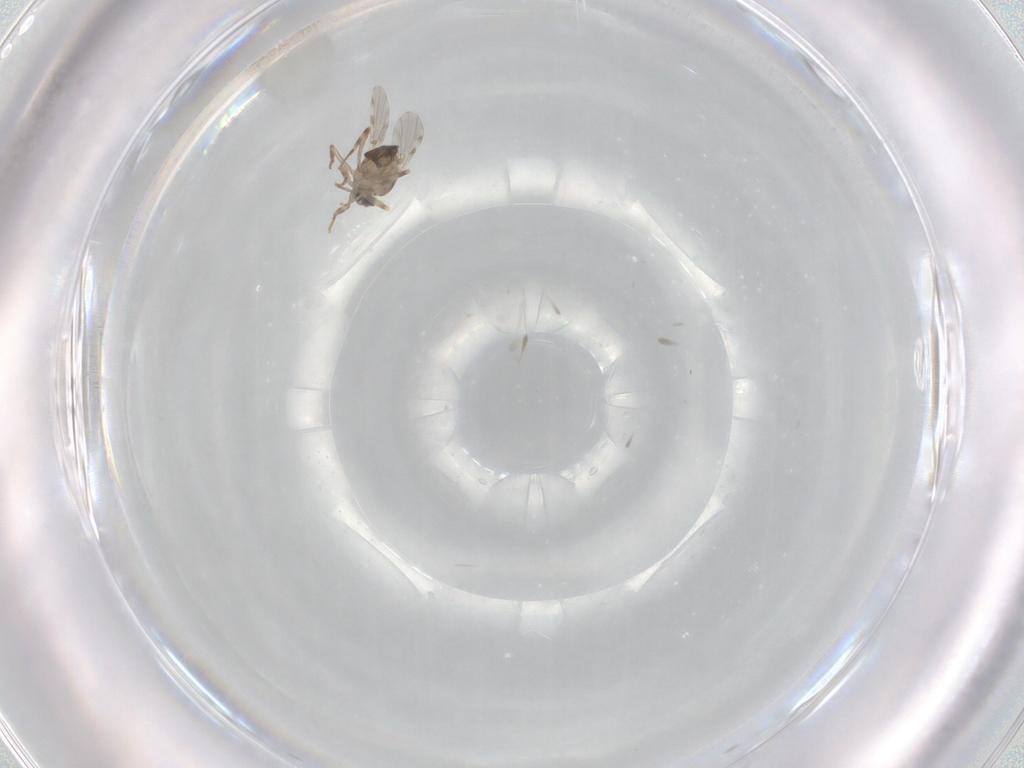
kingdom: Animalia
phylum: Arthropoda
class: Insecta
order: Diptera
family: Ceratopogonidae
